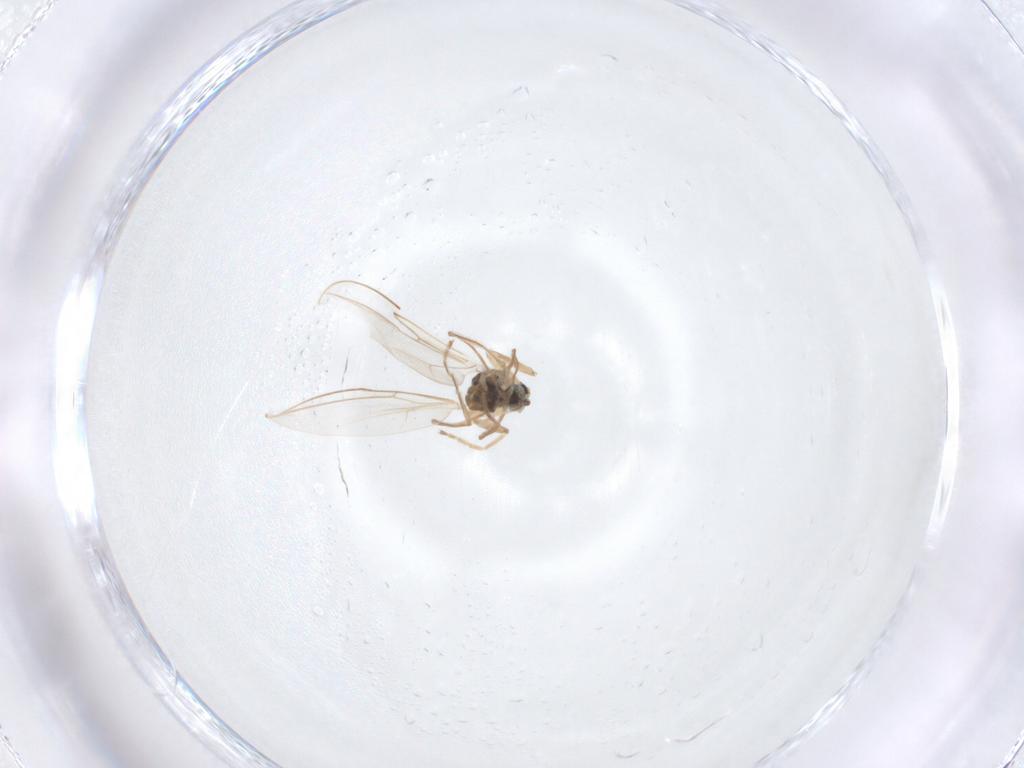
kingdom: Animalia
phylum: Arthropoda
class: Insecta
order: Diptera
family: Cecidomyiidae
